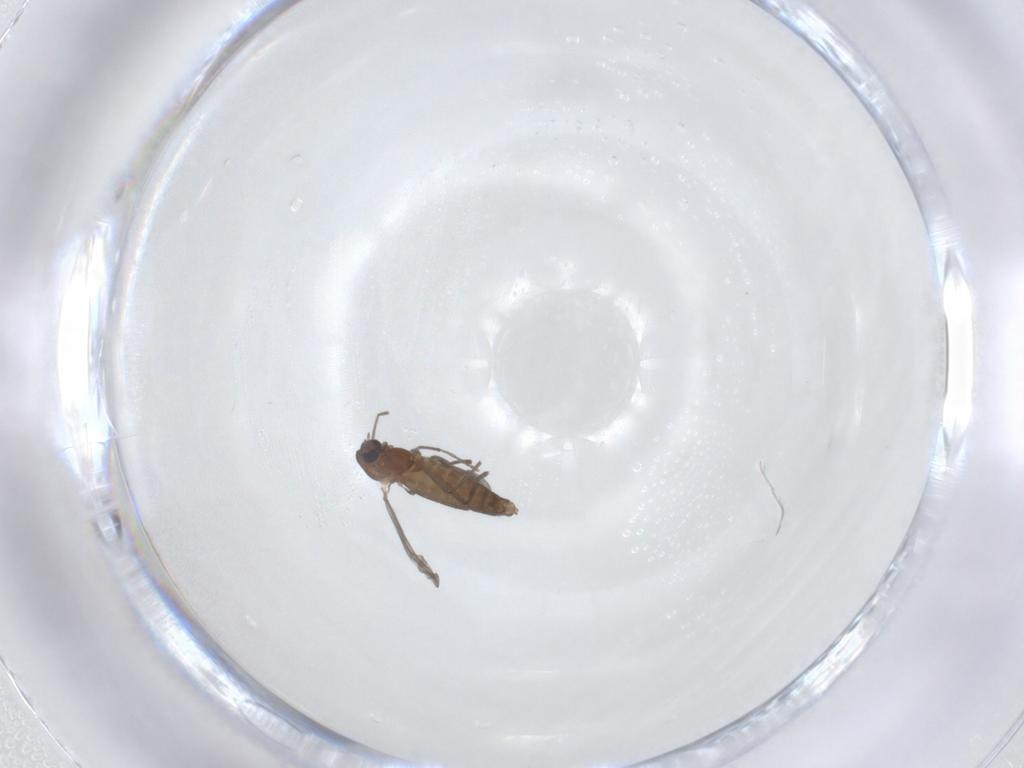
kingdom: Animalia
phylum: Arthropoda
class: Insecta
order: Diptera
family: Chironomidae
